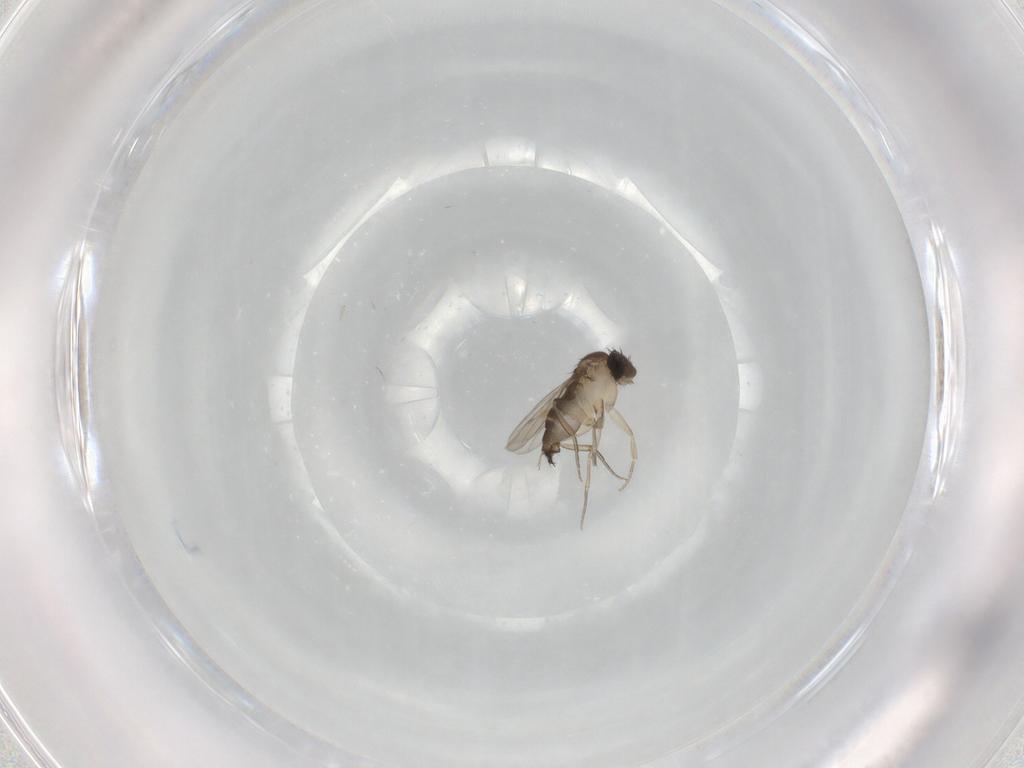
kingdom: Animalia
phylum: Arthropoda
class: Insecta
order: Diptera
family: Phoridae
